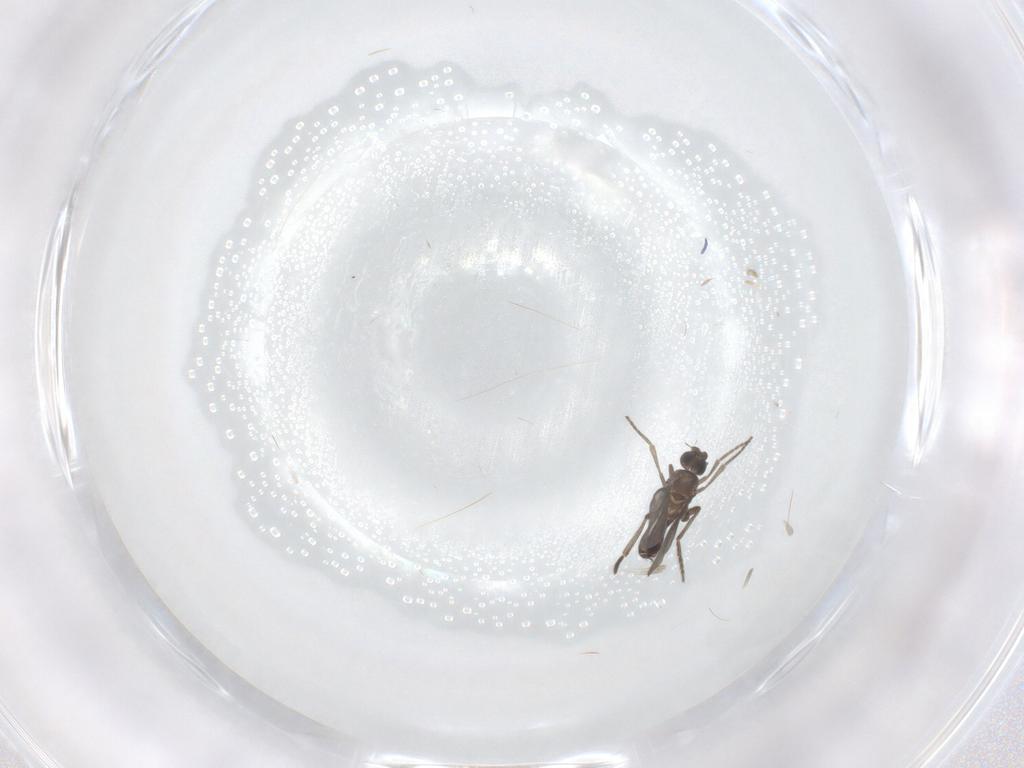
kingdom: Animalia
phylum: Arthropoda
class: Insecta
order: Diptera
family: Phoridae
